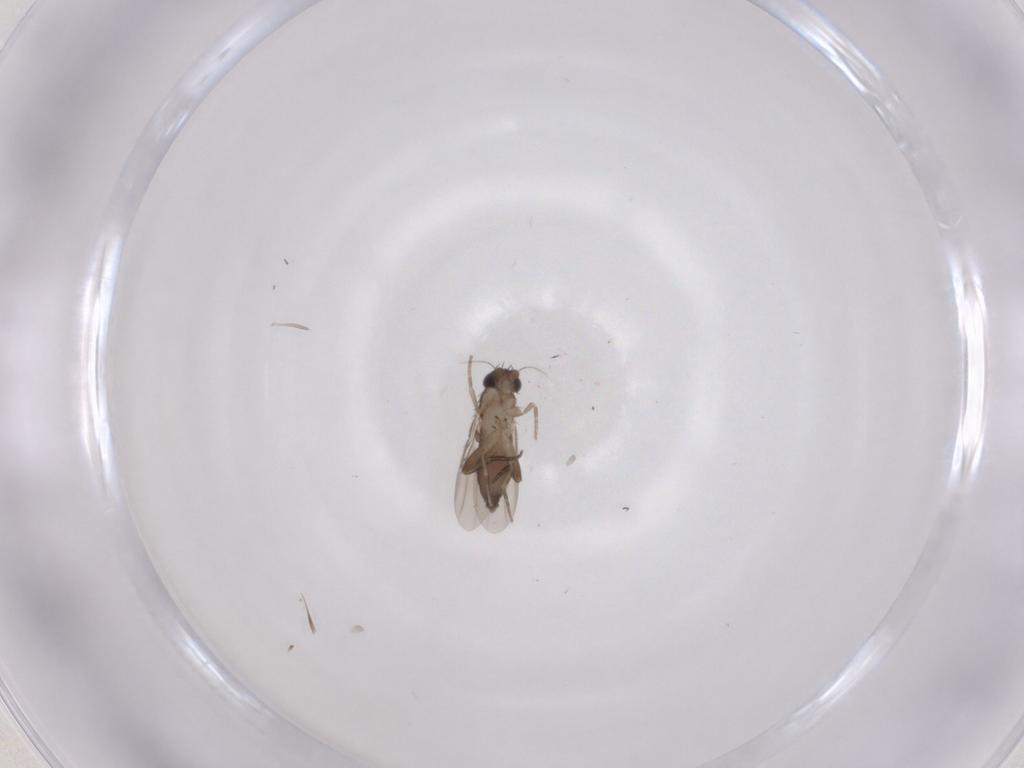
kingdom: Animalia
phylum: Arthropoda
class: Insecta
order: Diptera
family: Phoridae
